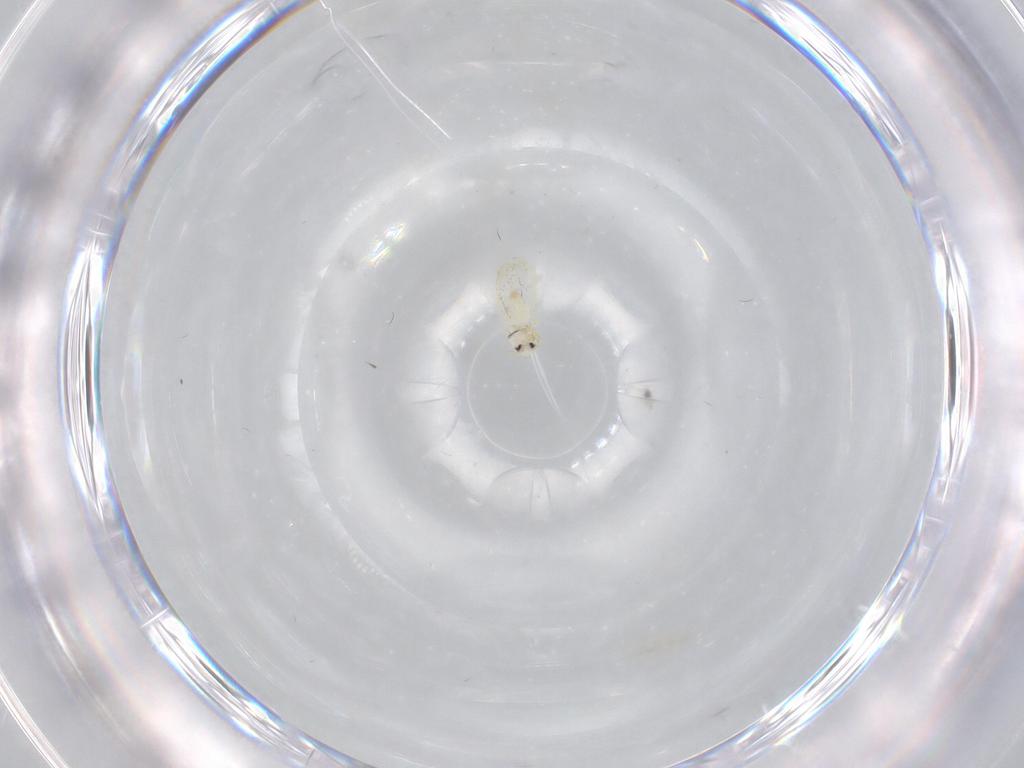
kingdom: Animalia
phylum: Arthropoda
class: Insecta
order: Hemiptera
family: Aleyrodidae
